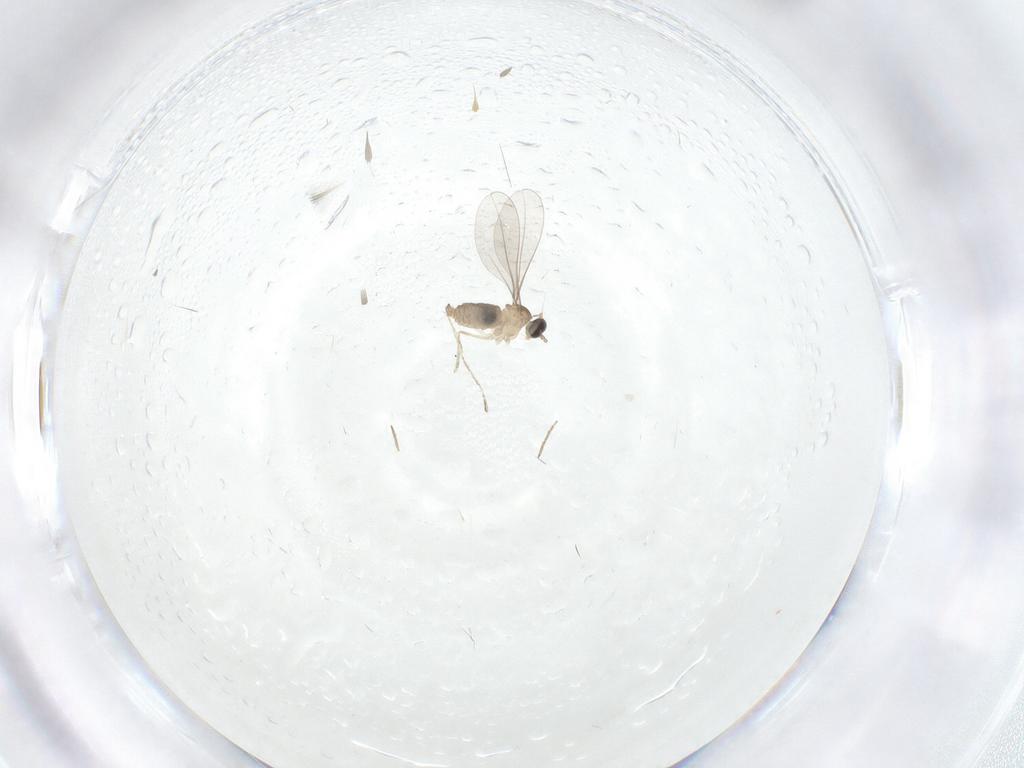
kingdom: Animalia
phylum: Arthropoda
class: Insecta
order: Diptera
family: Cecidomyiidae
